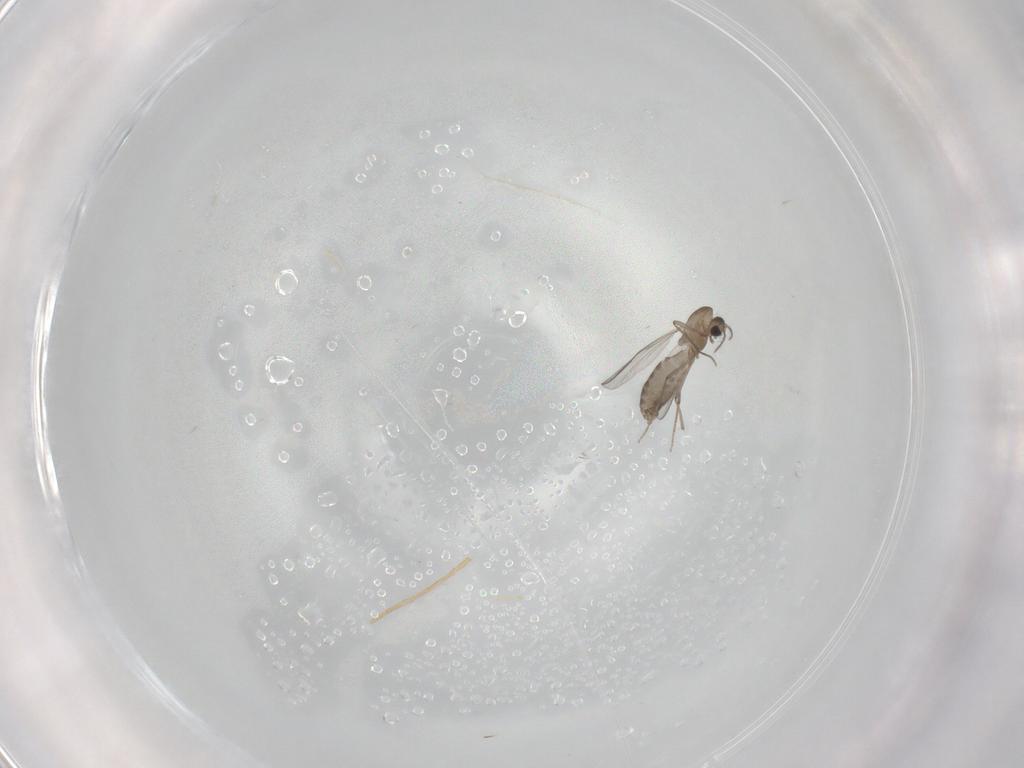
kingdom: Animalia
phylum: Arthropoda
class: Insecta
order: Diptera
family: Chironomidae
